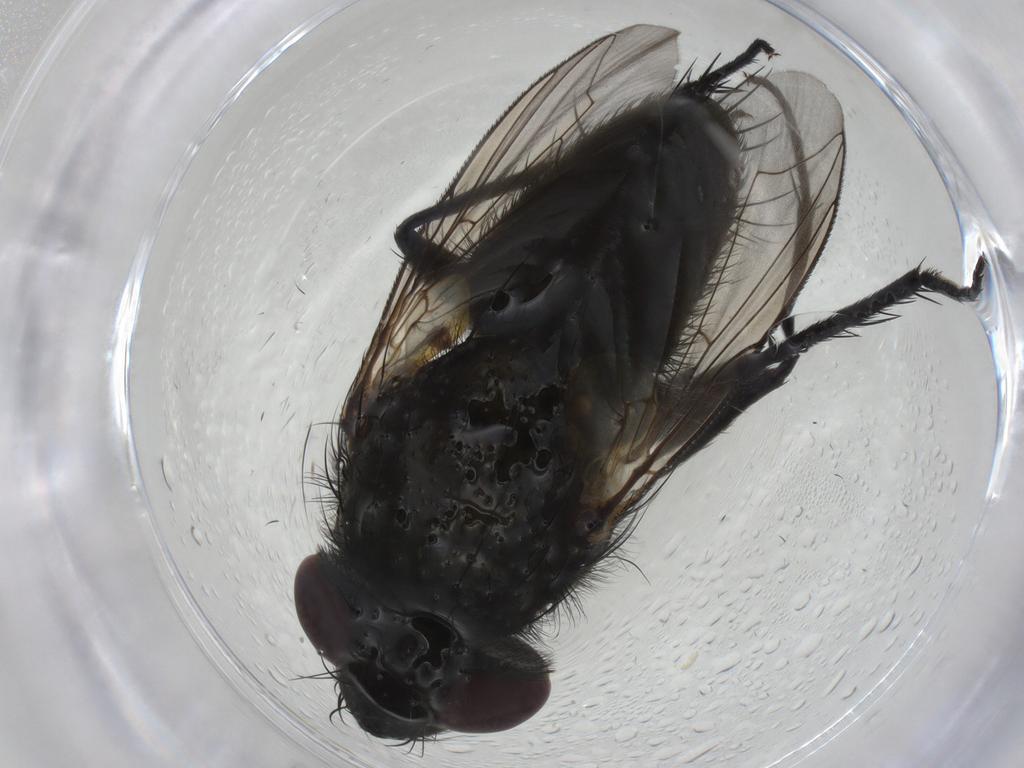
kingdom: Animalia
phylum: Arthropoda
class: Insecta
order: Diptera
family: Sarcophagidae
